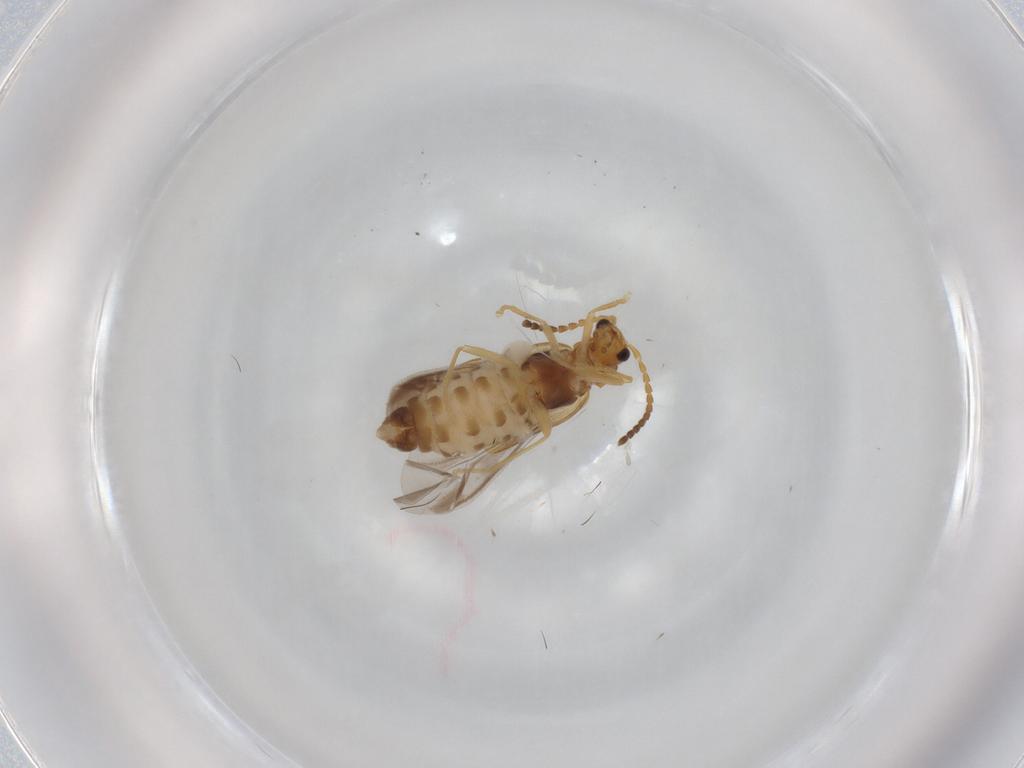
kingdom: Animalia
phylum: Arthropoda
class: Insecta
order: Coleoptera
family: Cantharidae
